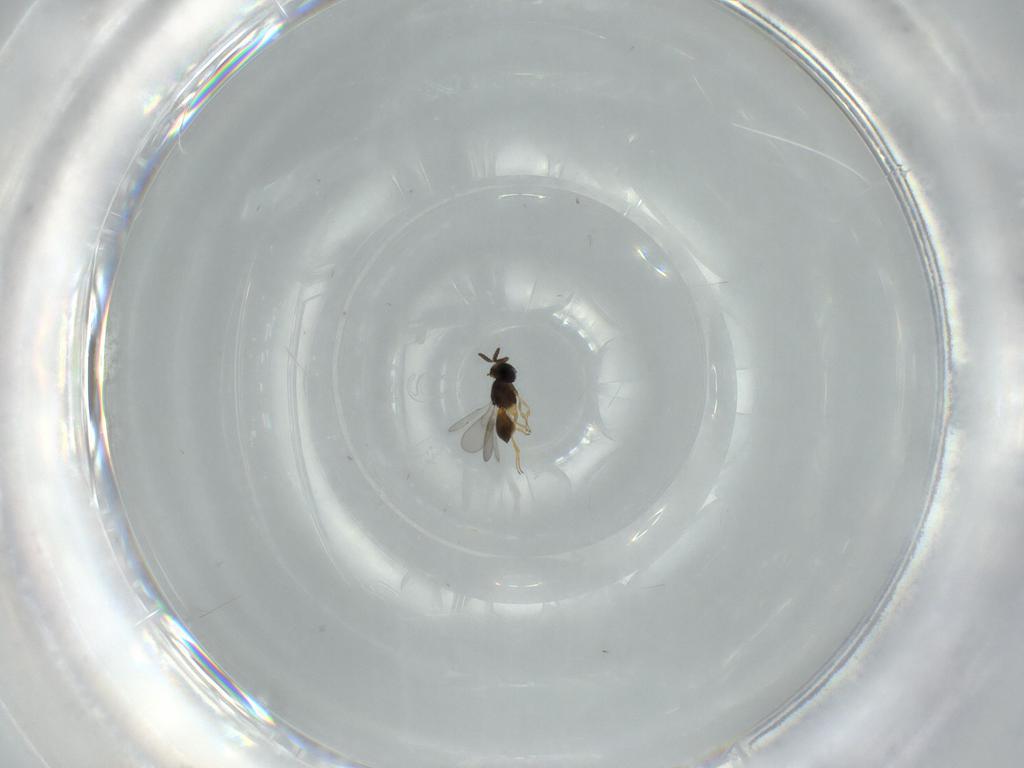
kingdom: Animalia
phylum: Arthropoda
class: Insecta
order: Hymenoptera
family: Scelionidae
